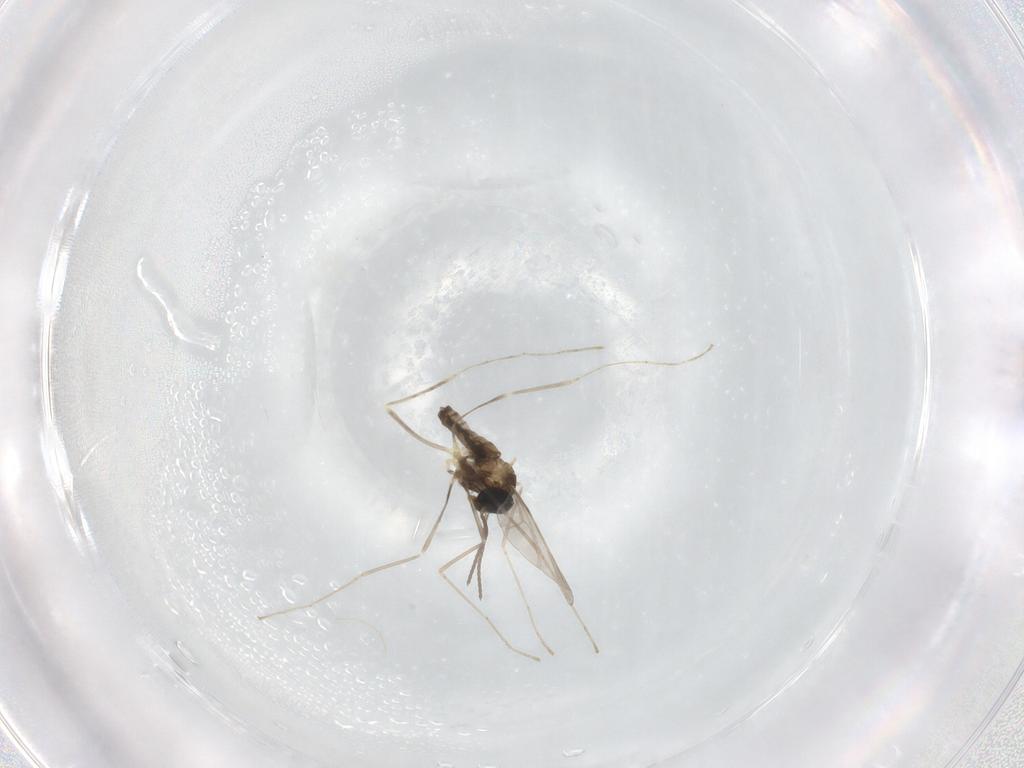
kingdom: Animalia
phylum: Arthropoda
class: Insecta
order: Diptera
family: Cecidomyiidae
